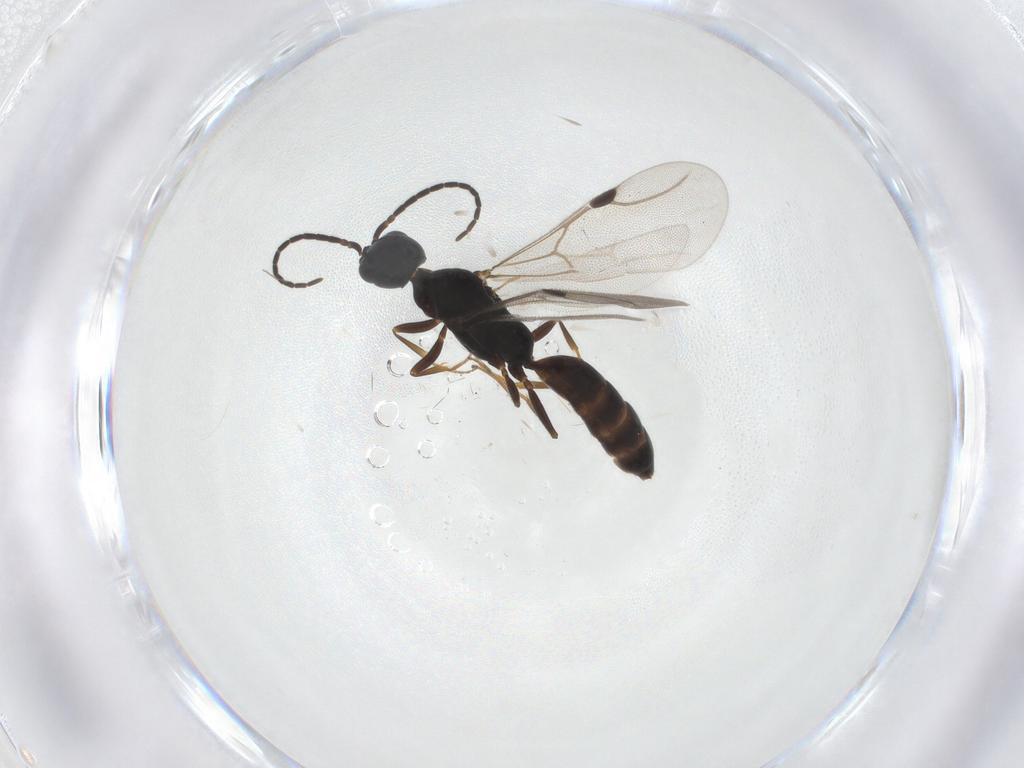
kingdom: Animalia
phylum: Arthropoda
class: Insecta
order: Hymenoptera
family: Bethylidae
